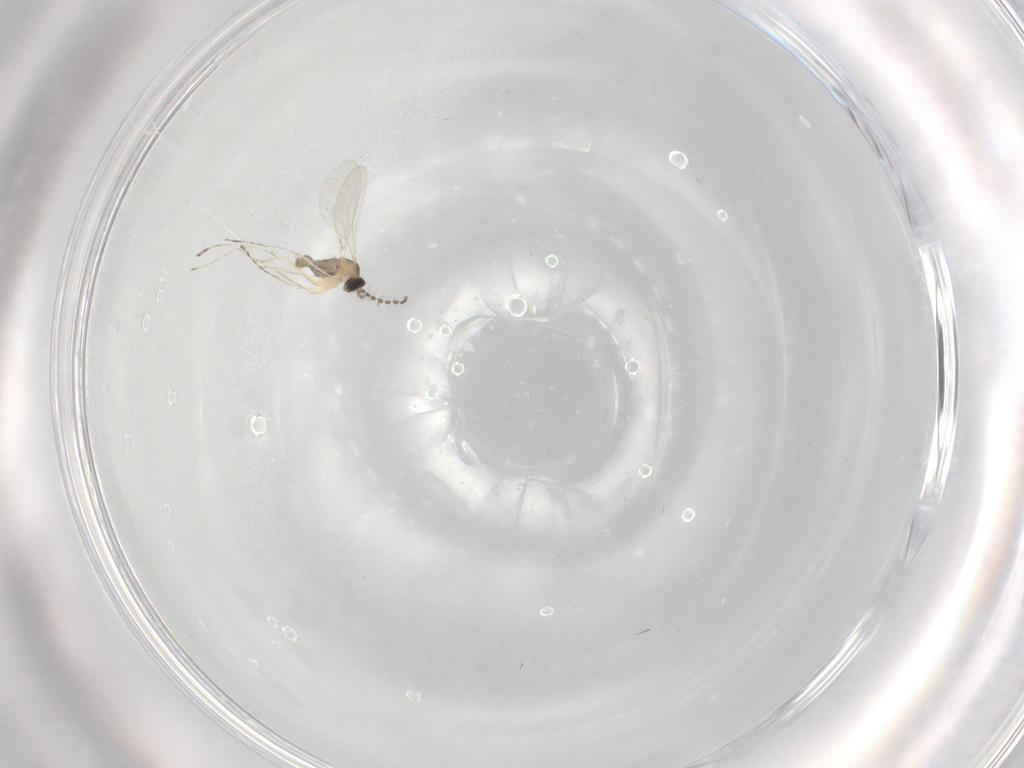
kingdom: Animalia
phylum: Arthropoda
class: Insecta
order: Diptera
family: Cecidomyiidae
